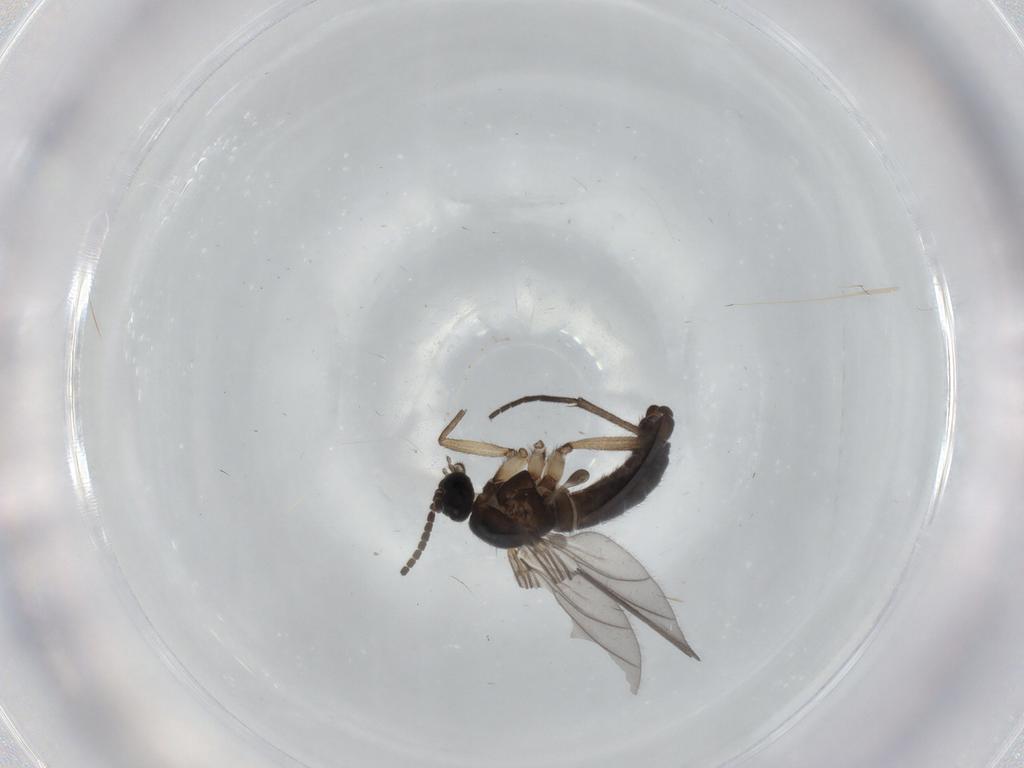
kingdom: Animalia
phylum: Arthropoda
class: Insecta
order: Diptera
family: Sciaridae
